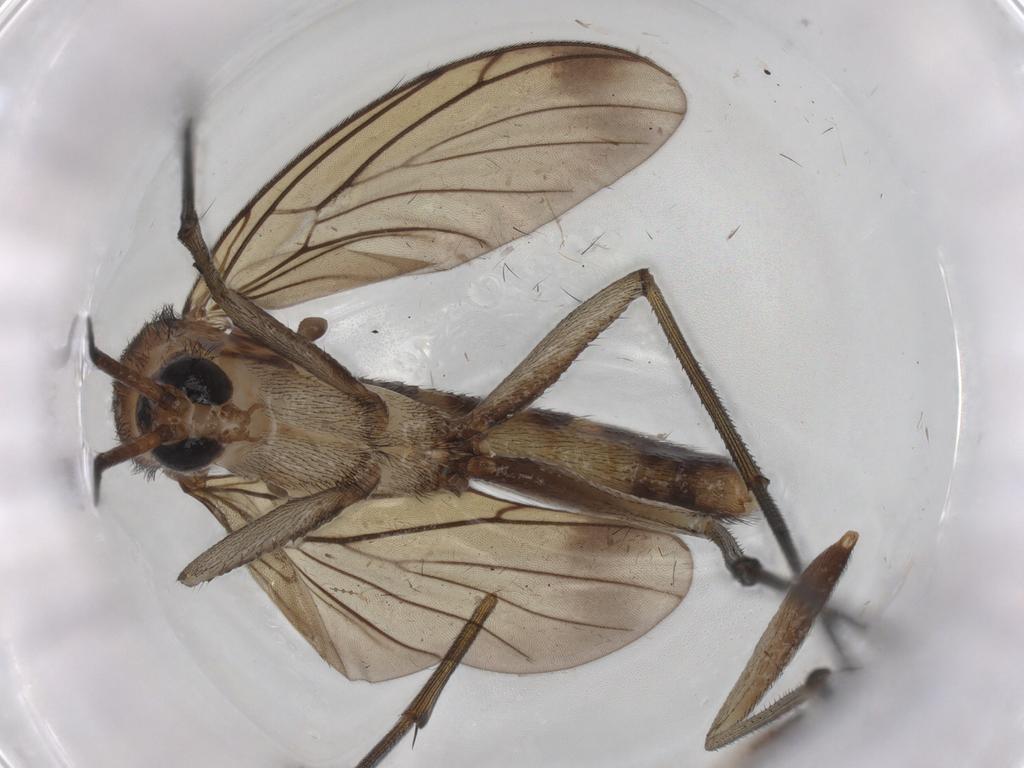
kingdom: Animalia
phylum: Arthropoda
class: Insecta
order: Diptera
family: Keroplatidae
